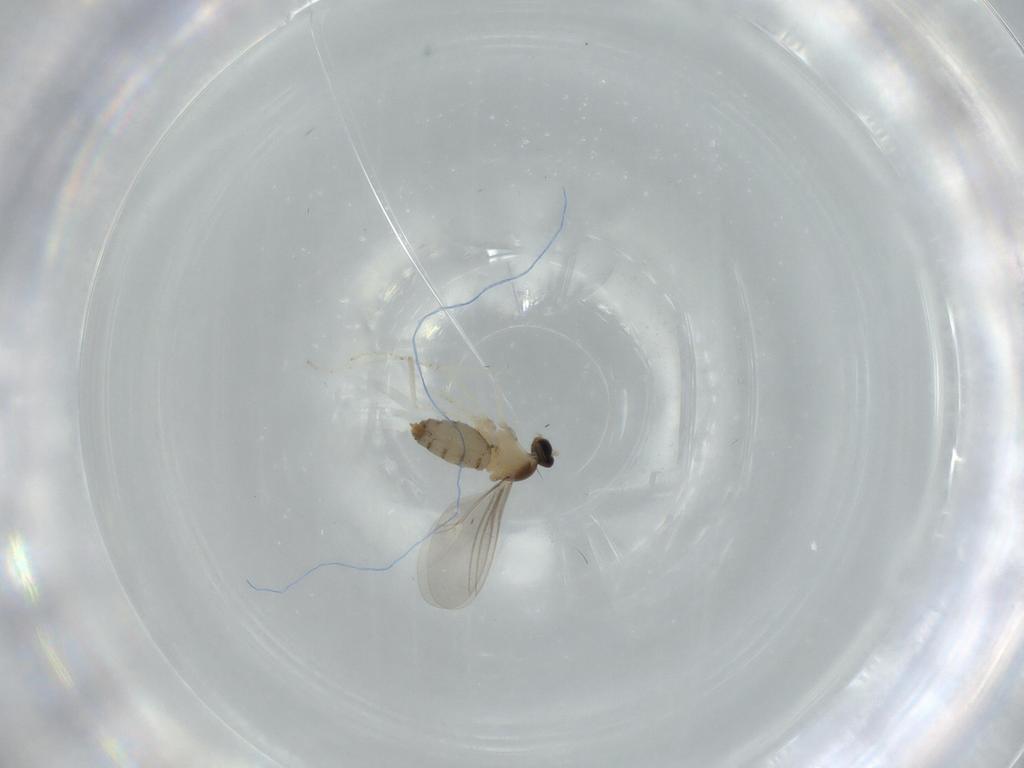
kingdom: Animalia
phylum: Arthropoda
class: Insecta
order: Diptera
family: Cecidomyiidae
